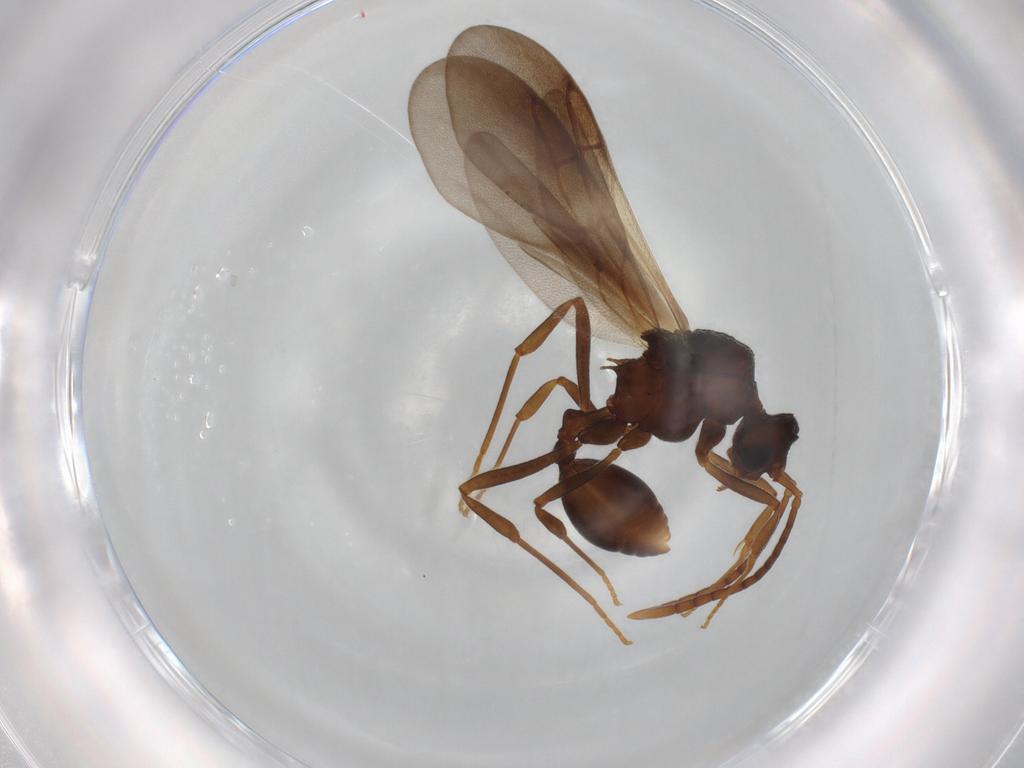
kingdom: Animalia
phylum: Arthropoda
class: Insecta
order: Hymenoptera
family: Formicidae
